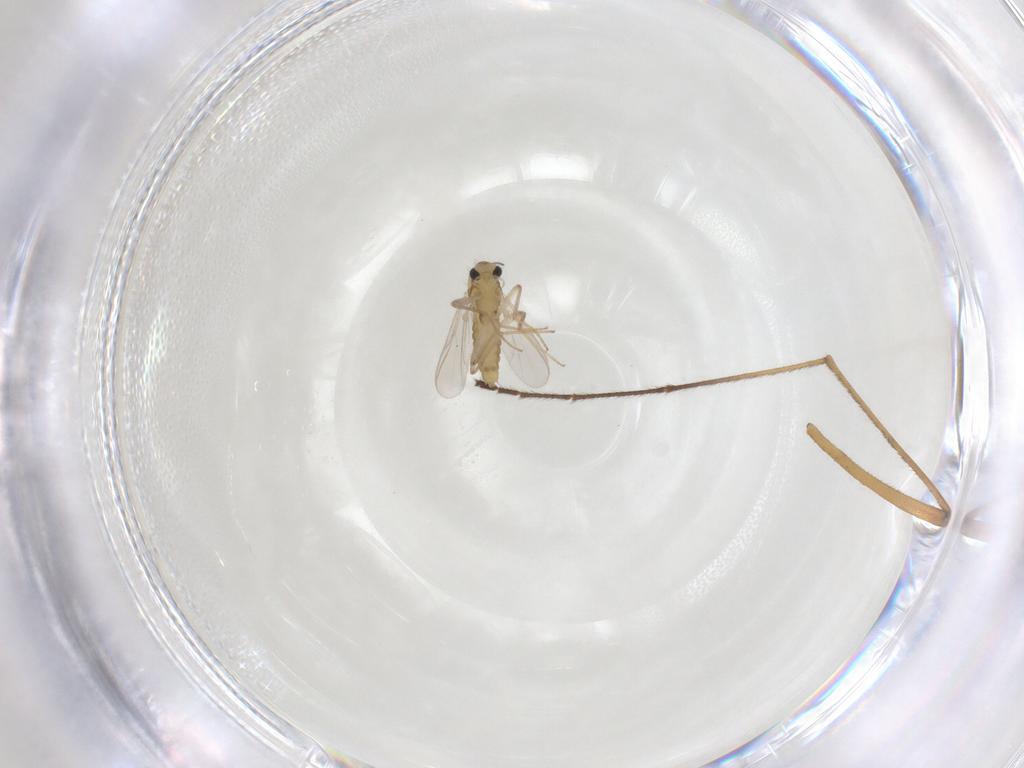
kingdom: Animalia
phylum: Arthropoda
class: Insecta
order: Diptera
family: Chironomidae
